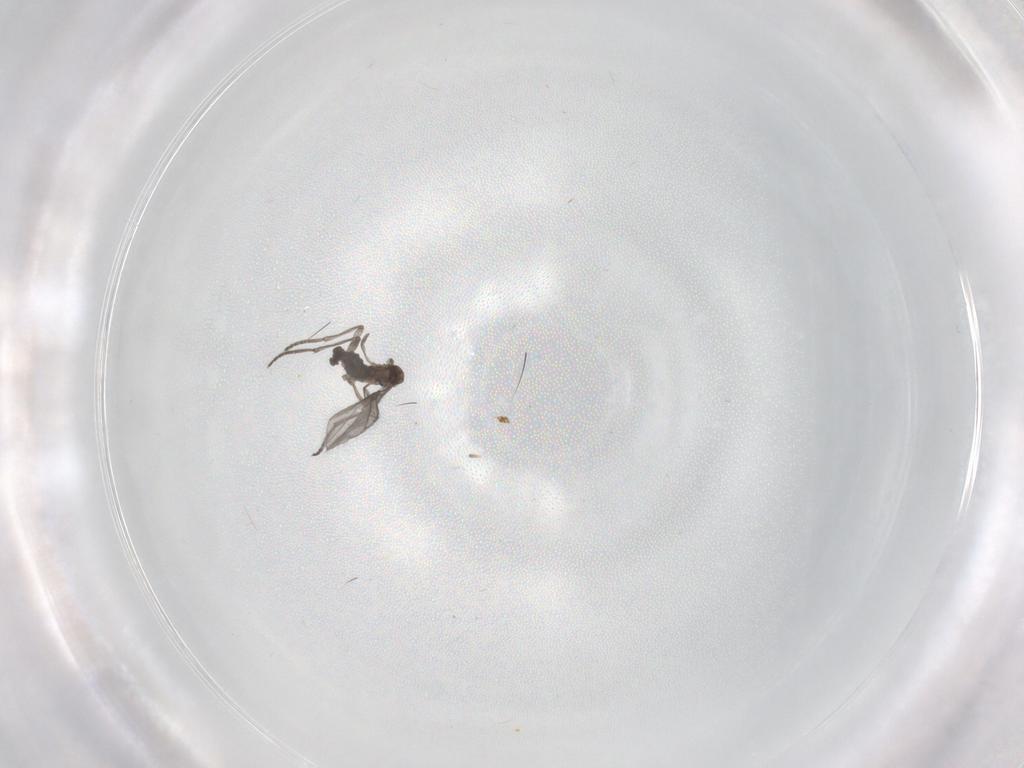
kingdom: Animalia
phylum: Arthropoda
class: Insecta
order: Diptera
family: Sciaridae
